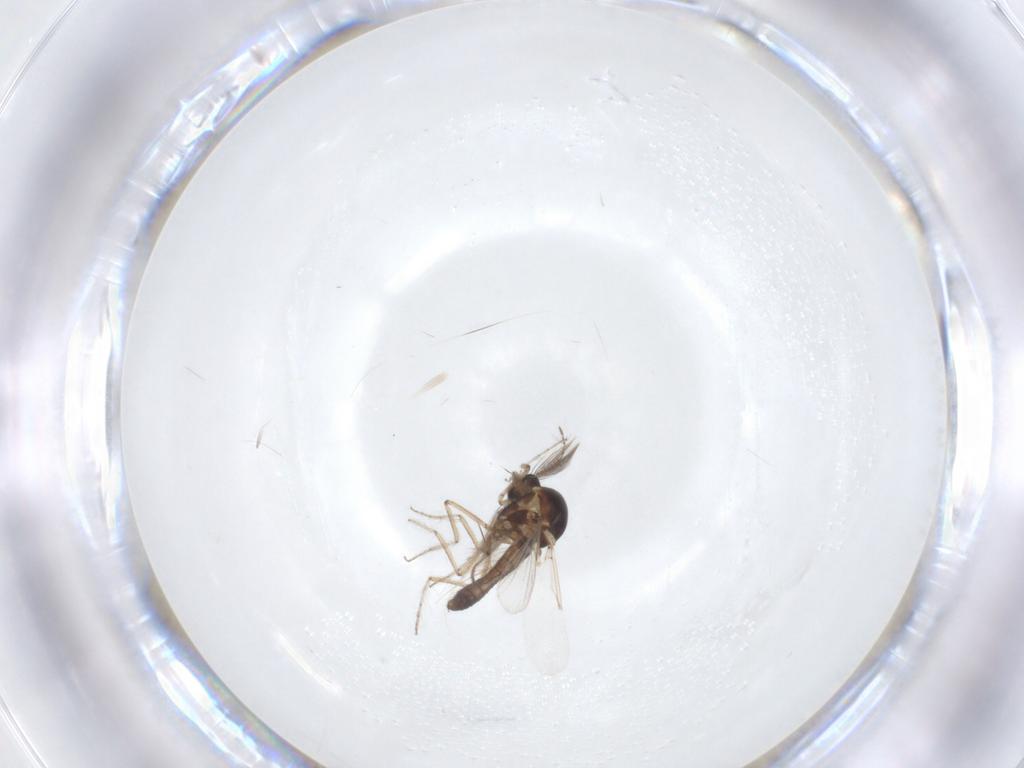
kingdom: Animalia
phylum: Arthropoda
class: Insecta
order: Diptera
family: Ceratopogonidae
